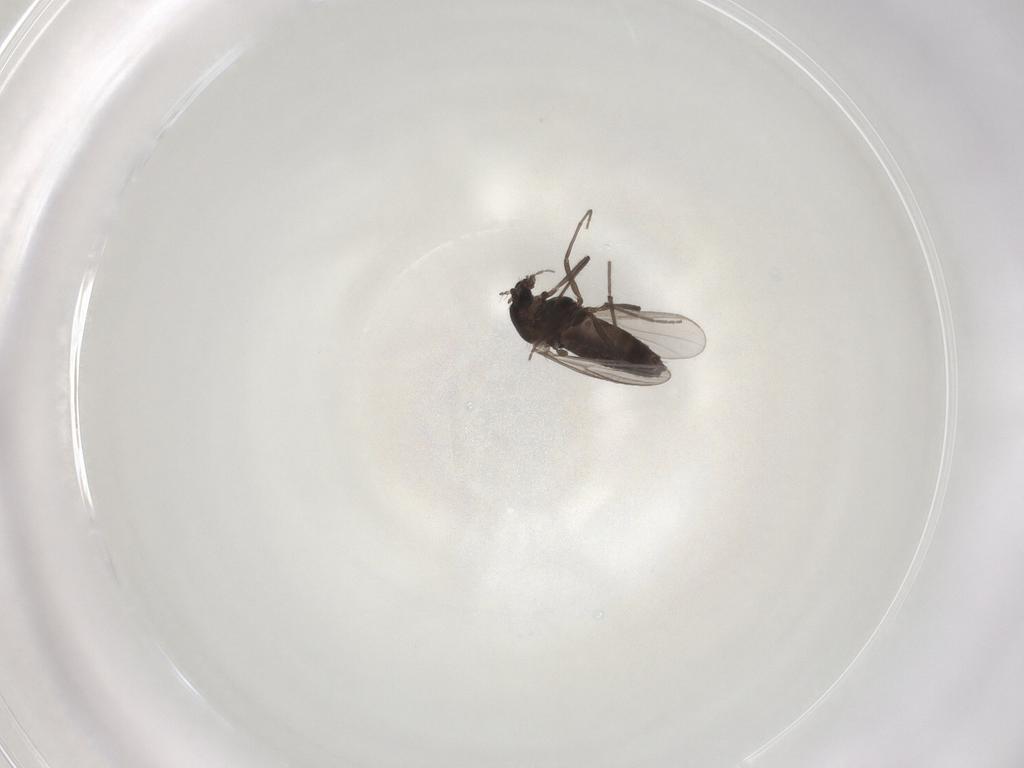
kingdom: Animalia
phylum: Arthropoda
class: Insecta
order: Diptera
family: Chironomidae
